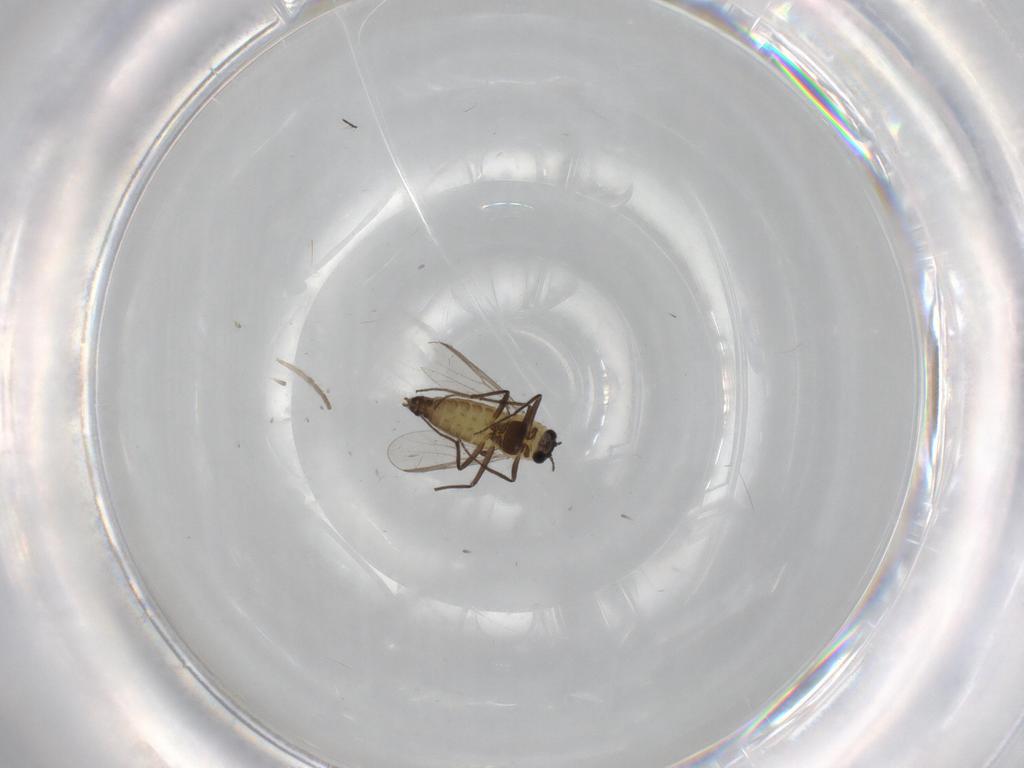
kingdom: Animalia
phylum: Arthropoda
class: Insecta
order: Diptera
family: Chironomidae
